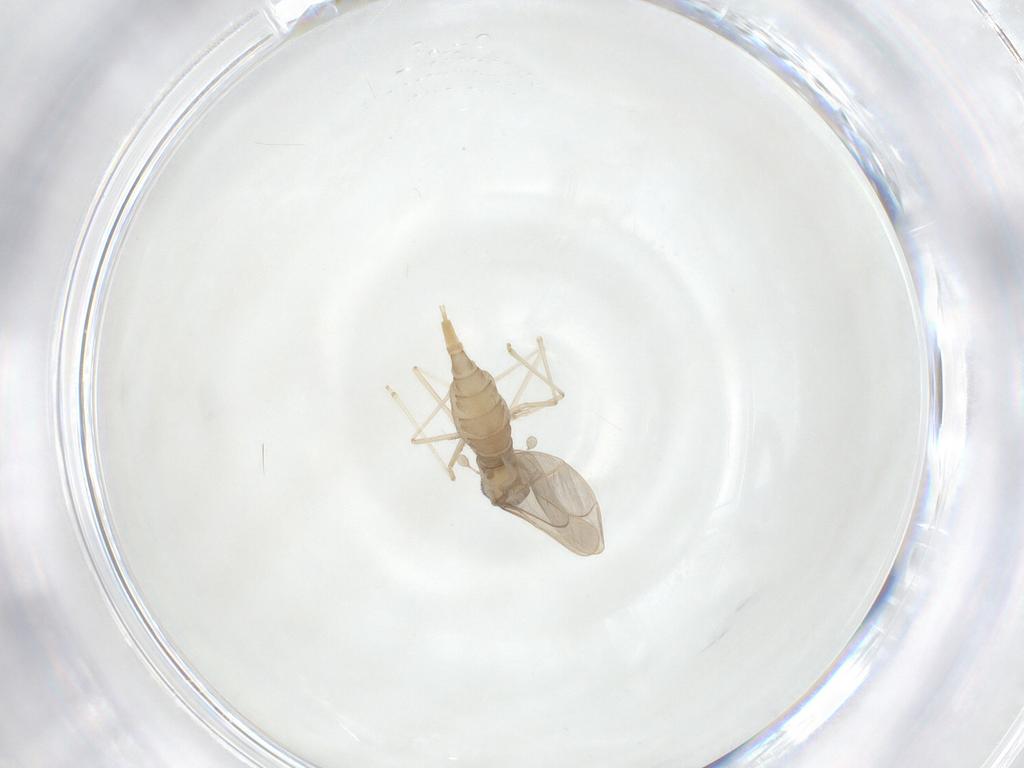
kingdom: Animalia
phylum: Arthropoda
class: Insecta
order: Diptera
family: Cecidomyiidae
